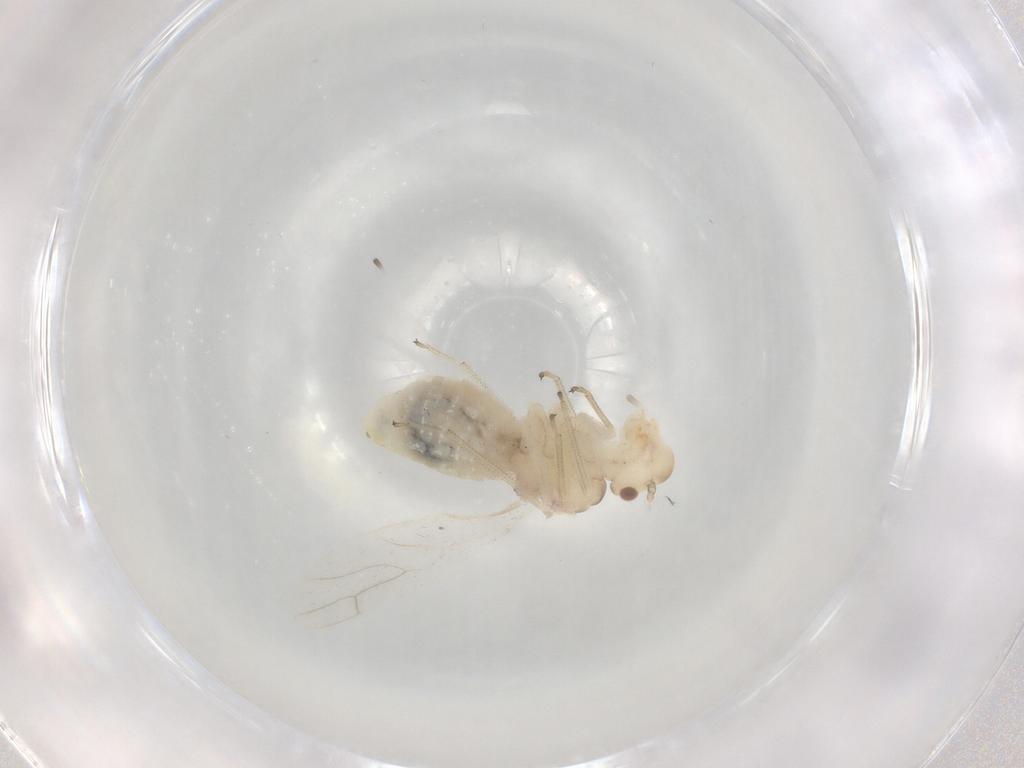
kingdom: Animalia
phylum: Arthropoda
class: Insecta
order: Psocodea
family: Caeciliusidae
